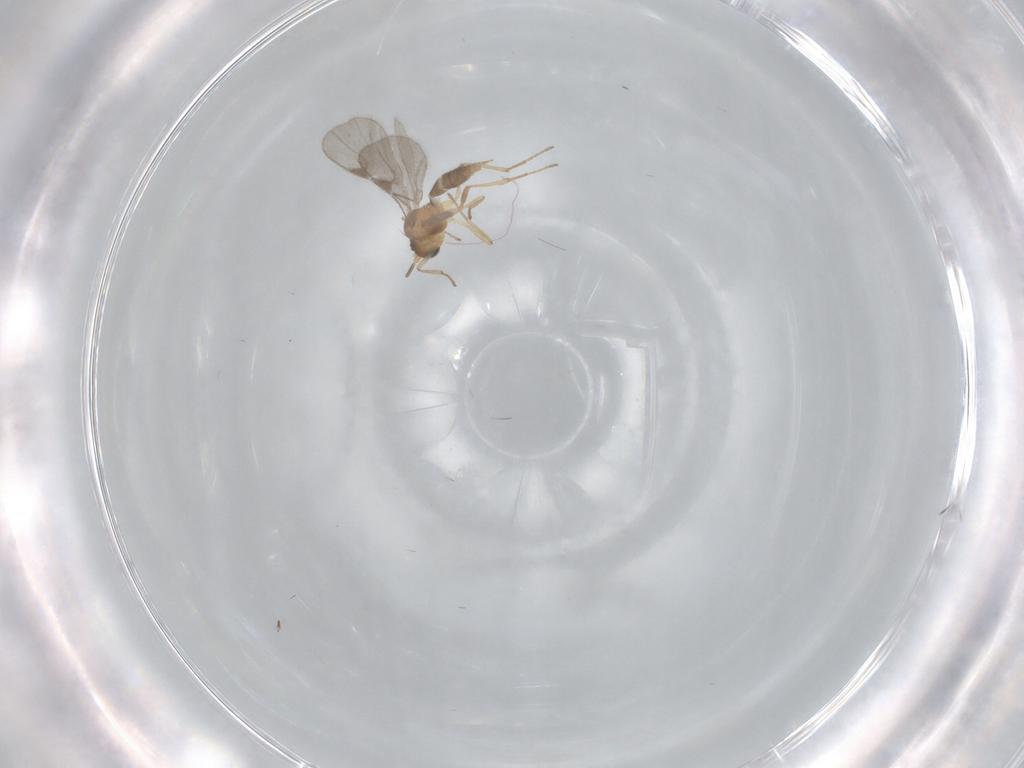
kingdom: Animalia
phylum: Arthropoda
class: Insecta
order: Hymenoptera
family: Braconidae
